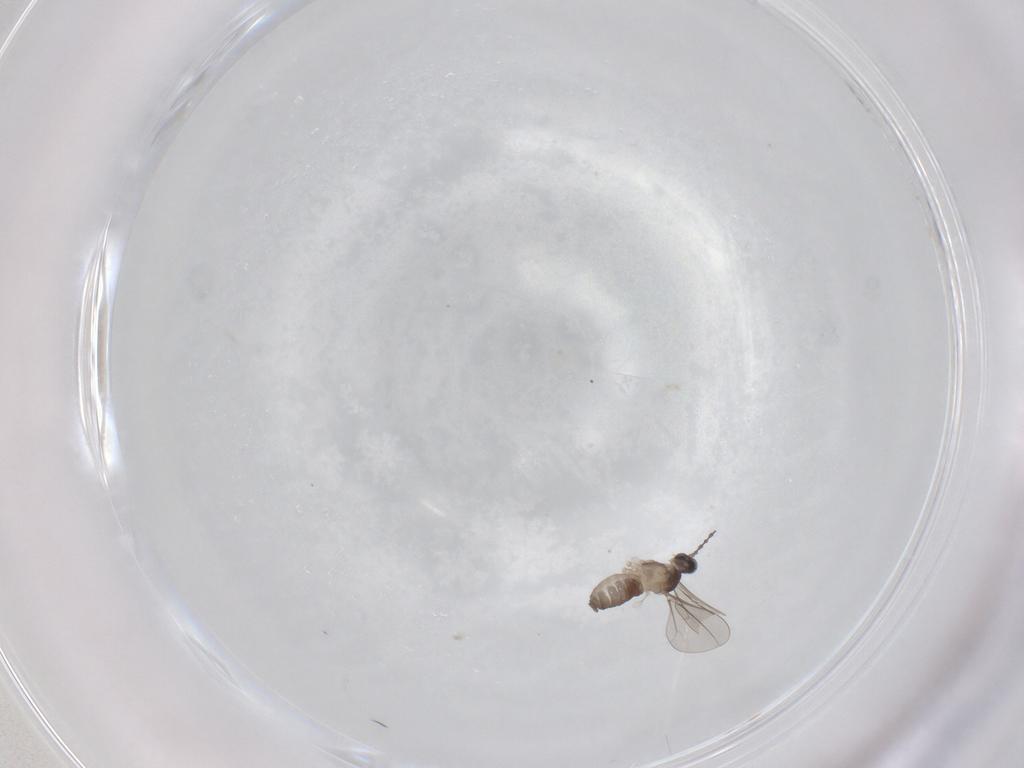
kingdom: Animalia
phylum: Arthropoda
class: Insecta
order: Diptera
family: Cecidomyiidae
